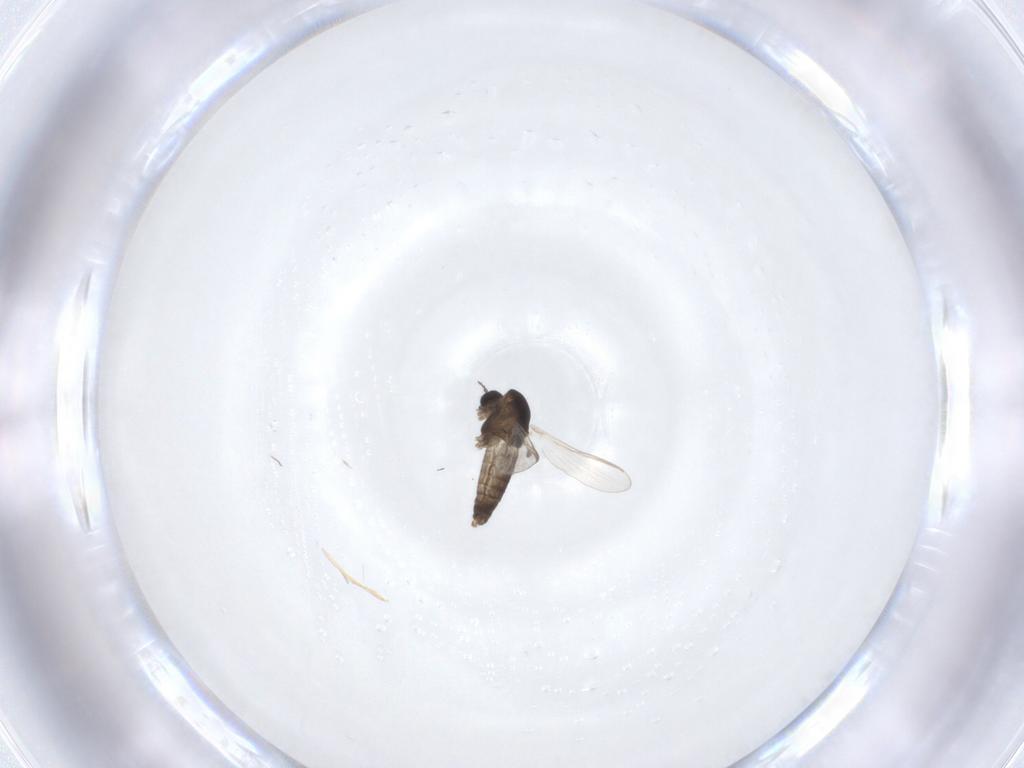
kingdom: Animalia
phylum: Arthropoda
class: Insecta
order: Diptera
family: Chironomidae
